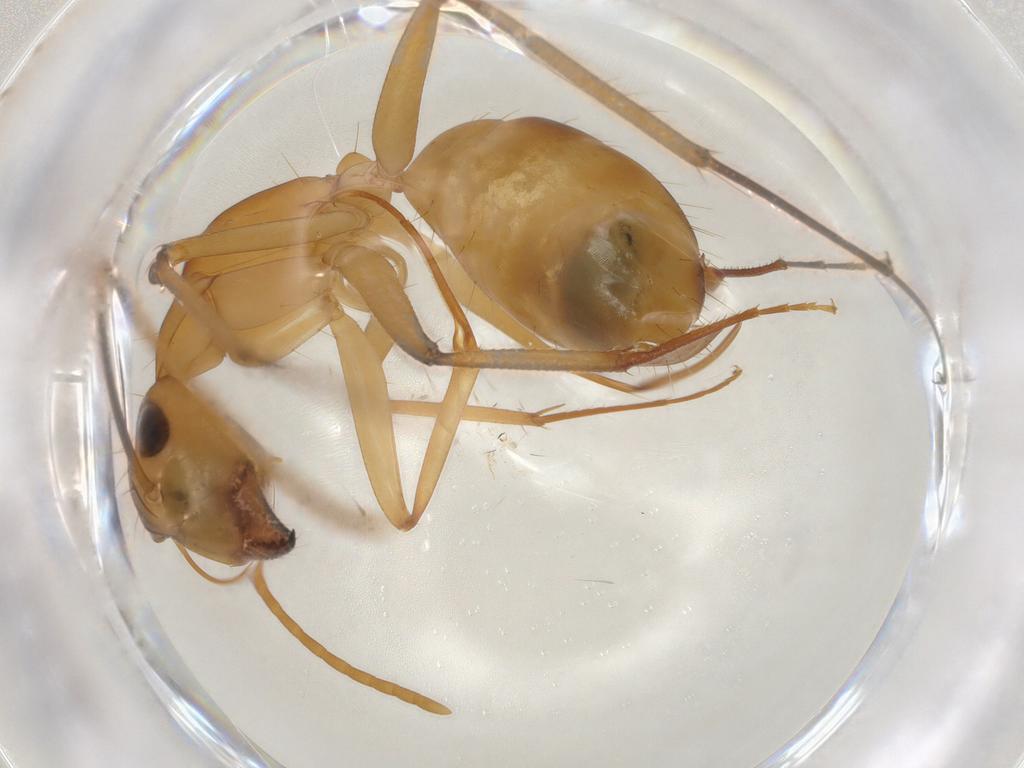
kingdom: Animalia
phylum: Arthropoda
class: Insecta
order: Hymenoptera
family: Formicidae
